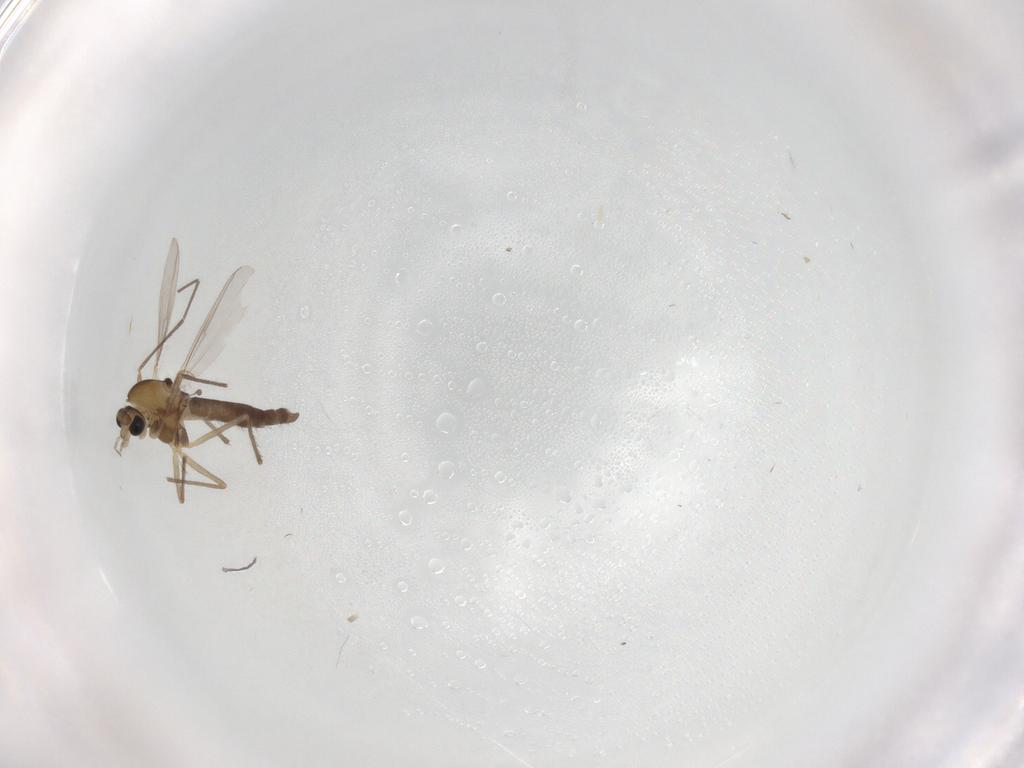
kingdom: Animalia
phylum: Arthropoda
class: Insecta
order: Diptera
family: Chironomidae
